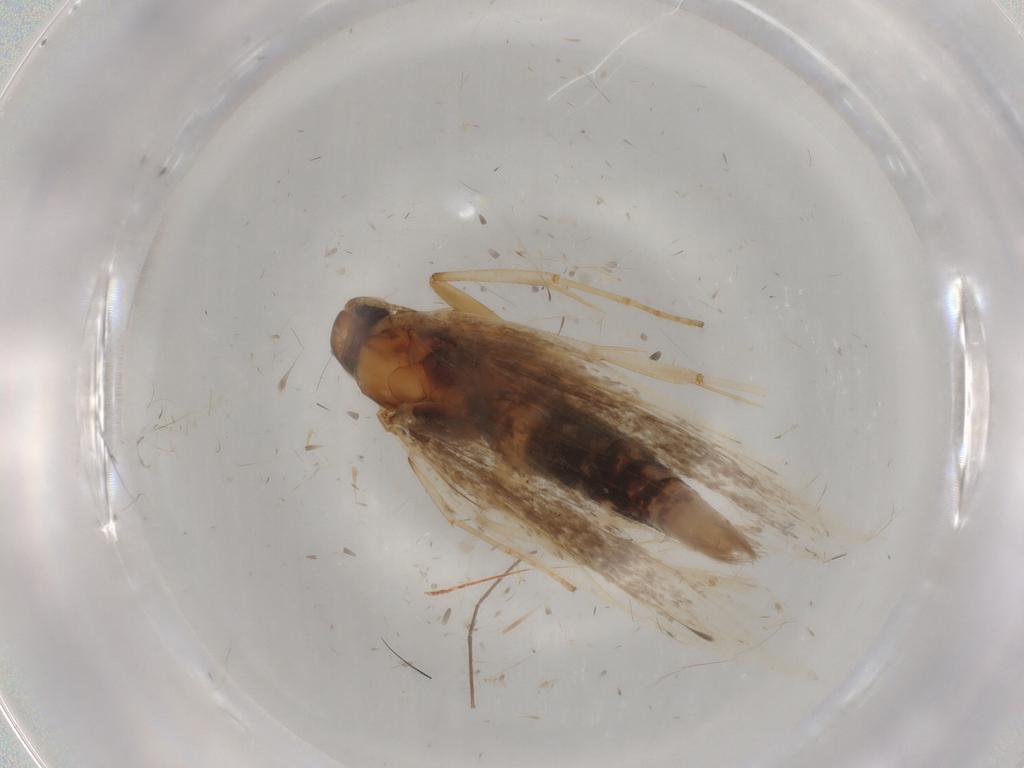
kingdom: Animalia
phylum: Arthropoda
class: Insecta
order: Lepidoptera
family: Gelechiidae
